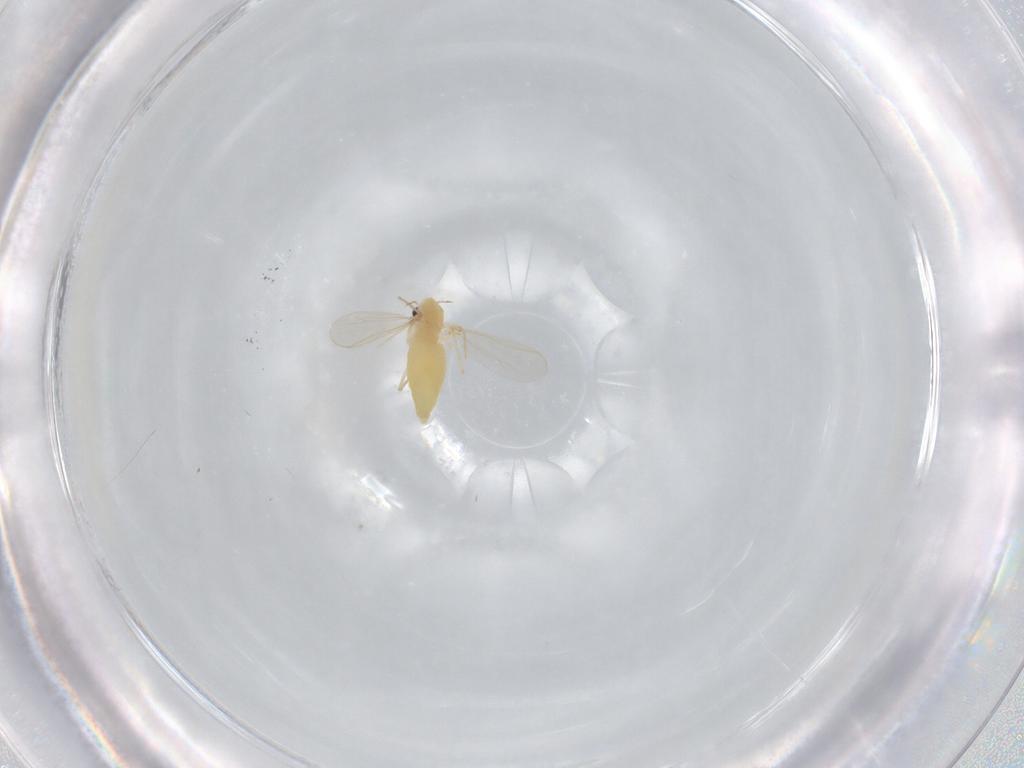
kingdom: Animalia
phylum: Arthropoda
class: Insecta
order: Diptera
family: Chironomidae
